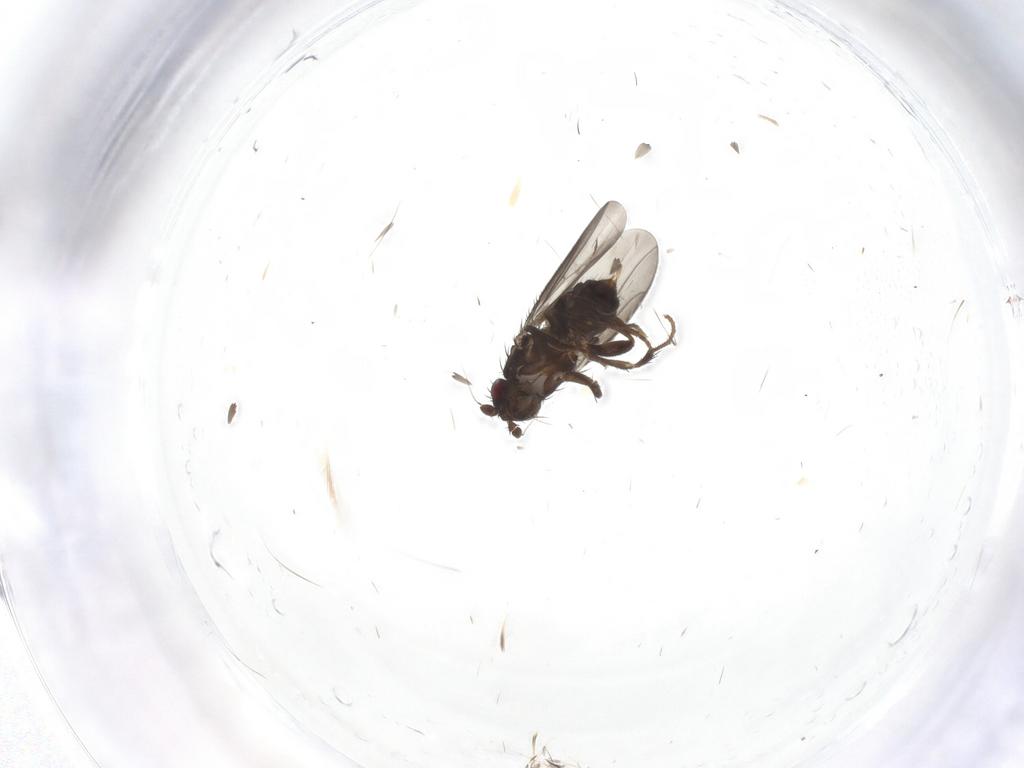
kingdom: Animalia
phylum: Arthropoda
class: Insecta
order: Diptera
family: Sphaeroceridae
